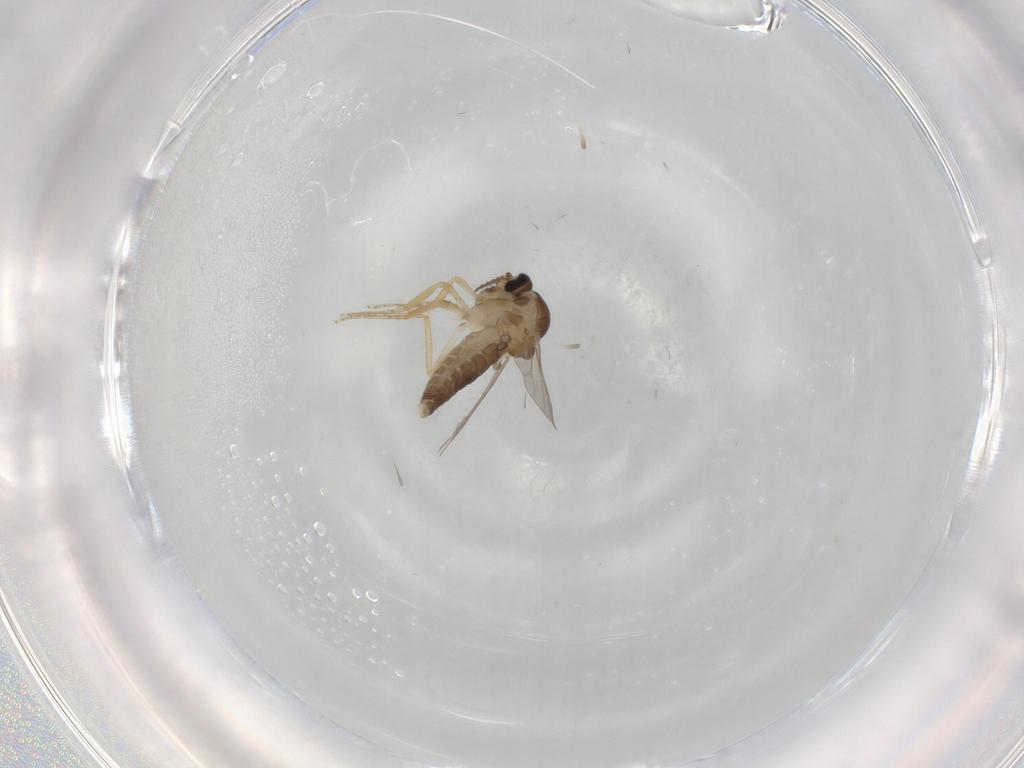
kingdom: Animalia
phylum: Arthropoda
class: Insecta
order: Diptera
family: Ceratopogonidae
